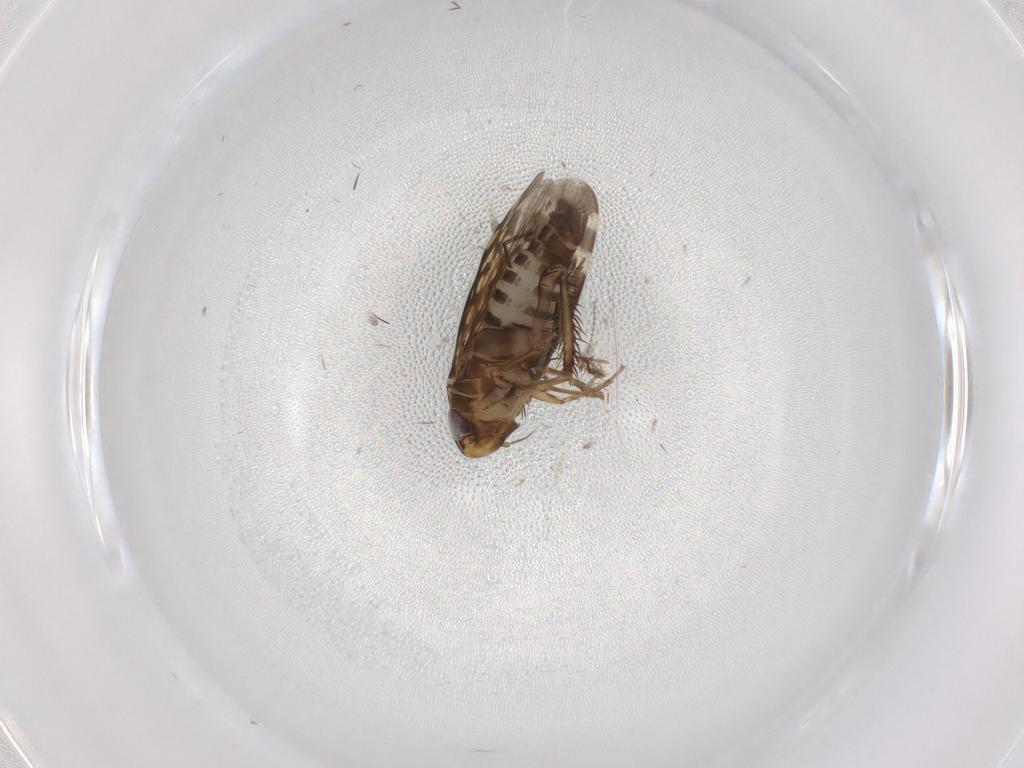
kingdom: Animalia
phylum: Arthropoda
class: Insecta
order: Hemiptera
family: Cicadellidae
